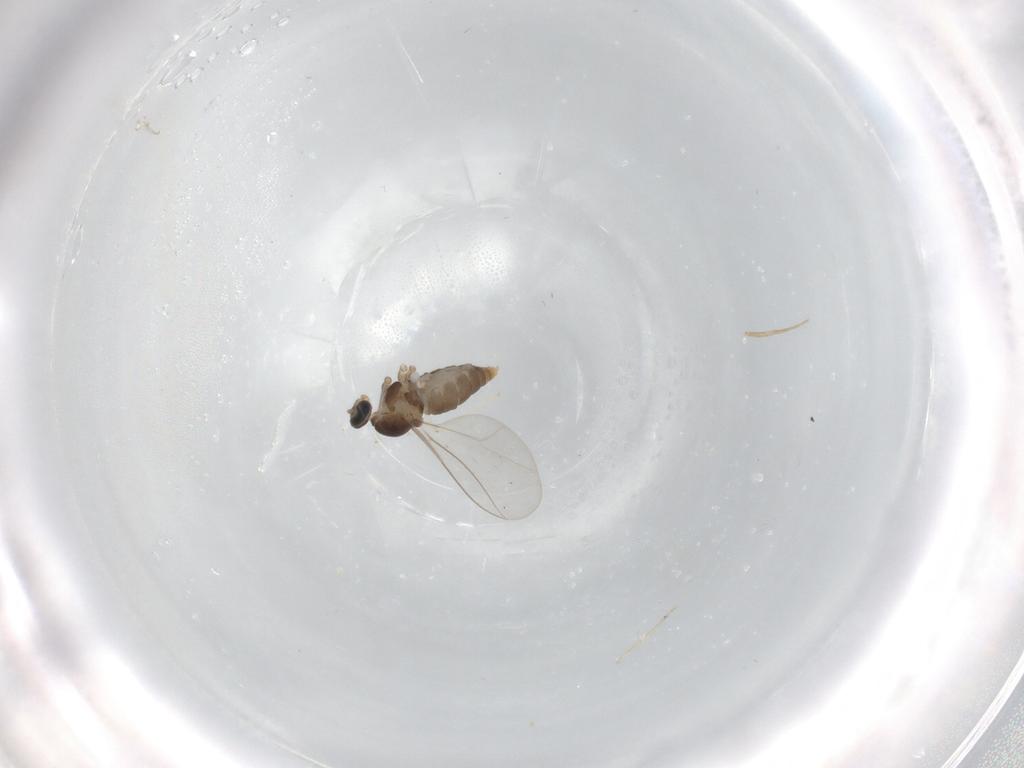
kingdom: Animalia
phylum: Arthropoda
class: Insecta
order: Diptera
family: Cecidomyiidae
